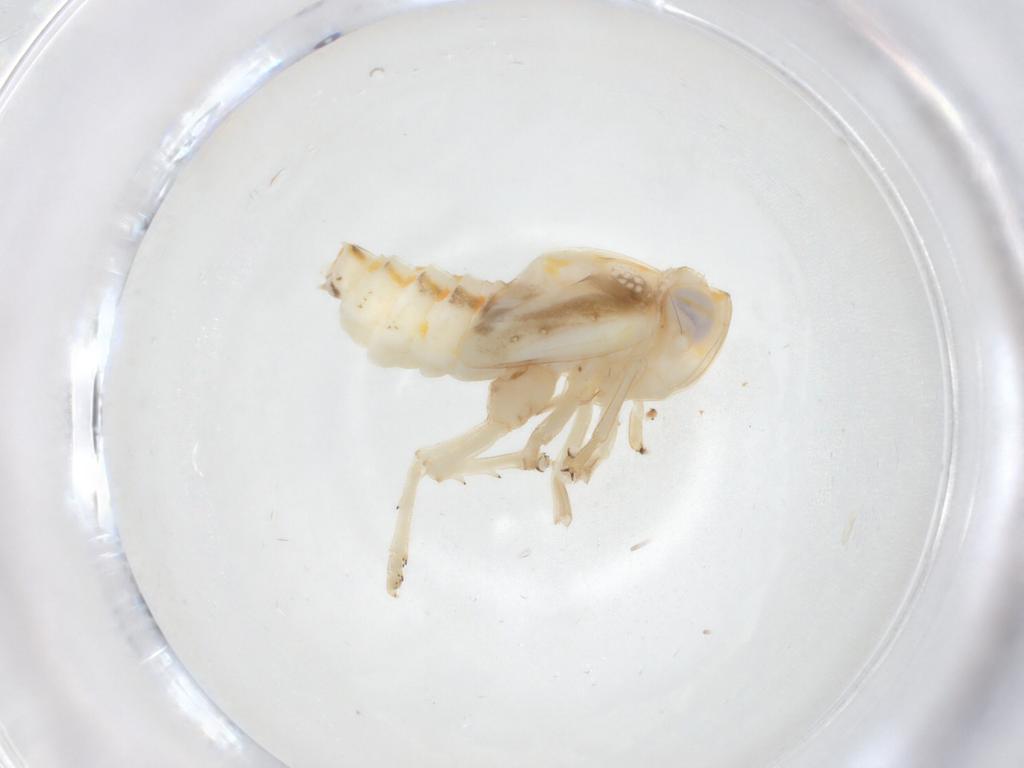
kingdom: Animalia
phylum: Arthropoda
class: Insecta
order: Hemiptera
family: Nogodinidae
